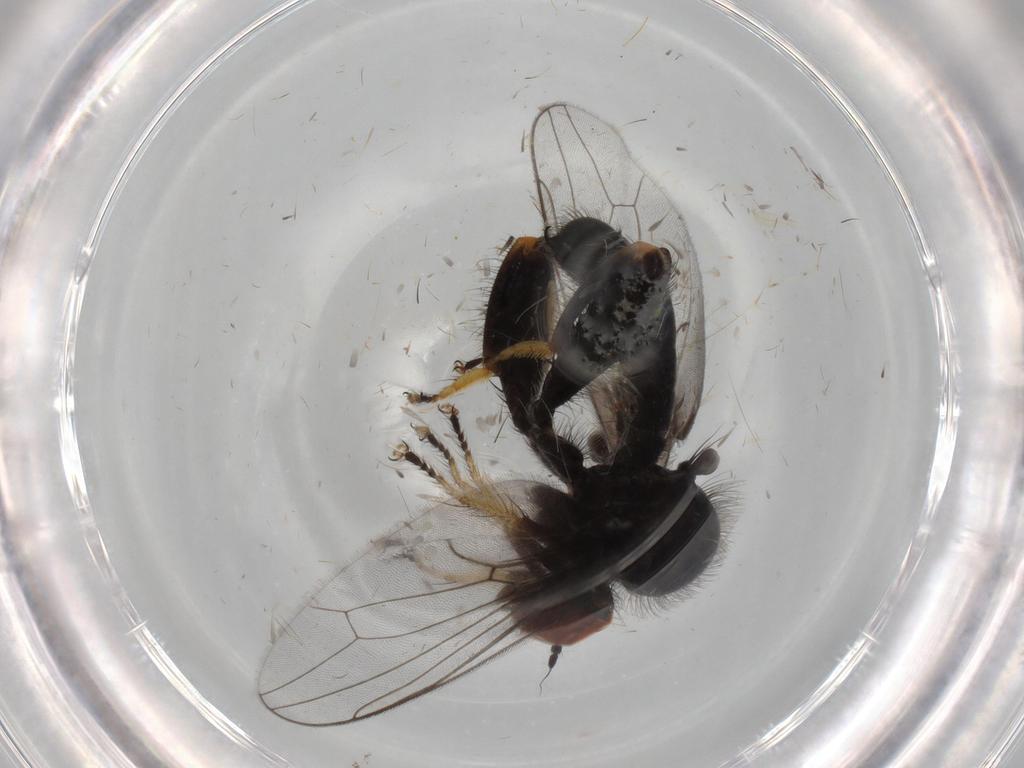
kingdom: Animalia
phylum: Arthropoda
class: Insecta
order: Diptera
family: Hybotidae
